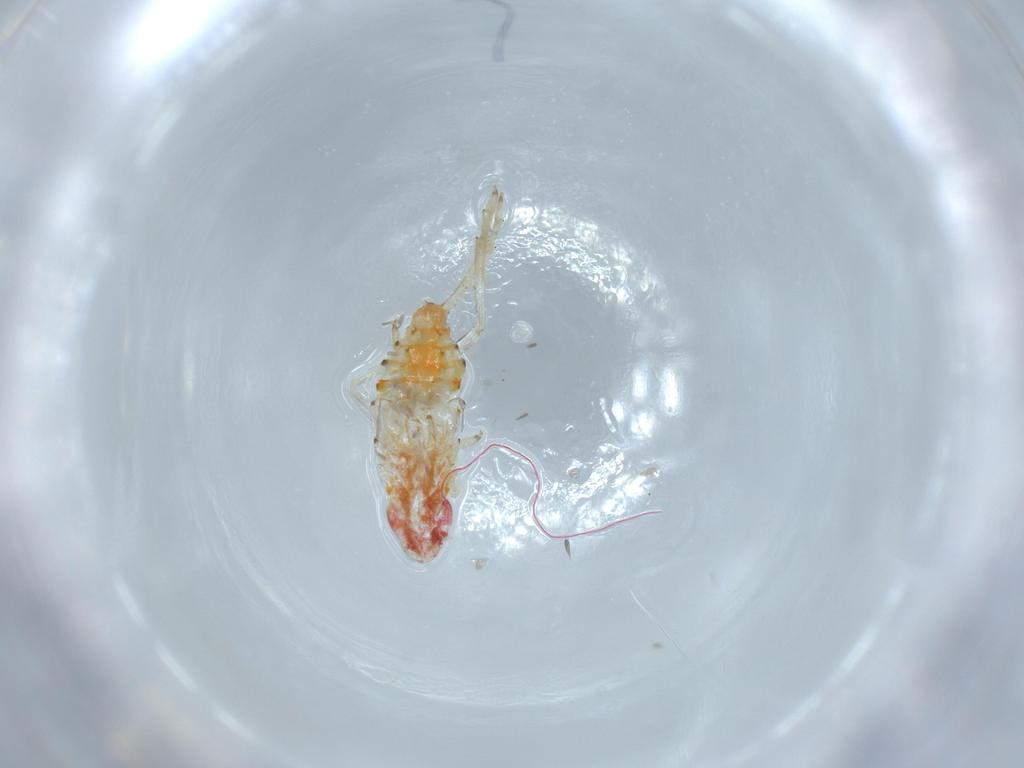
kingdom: Animalia
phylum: Arthropoda
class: Insecta
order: Hemiptera
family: Tropiduchidae
